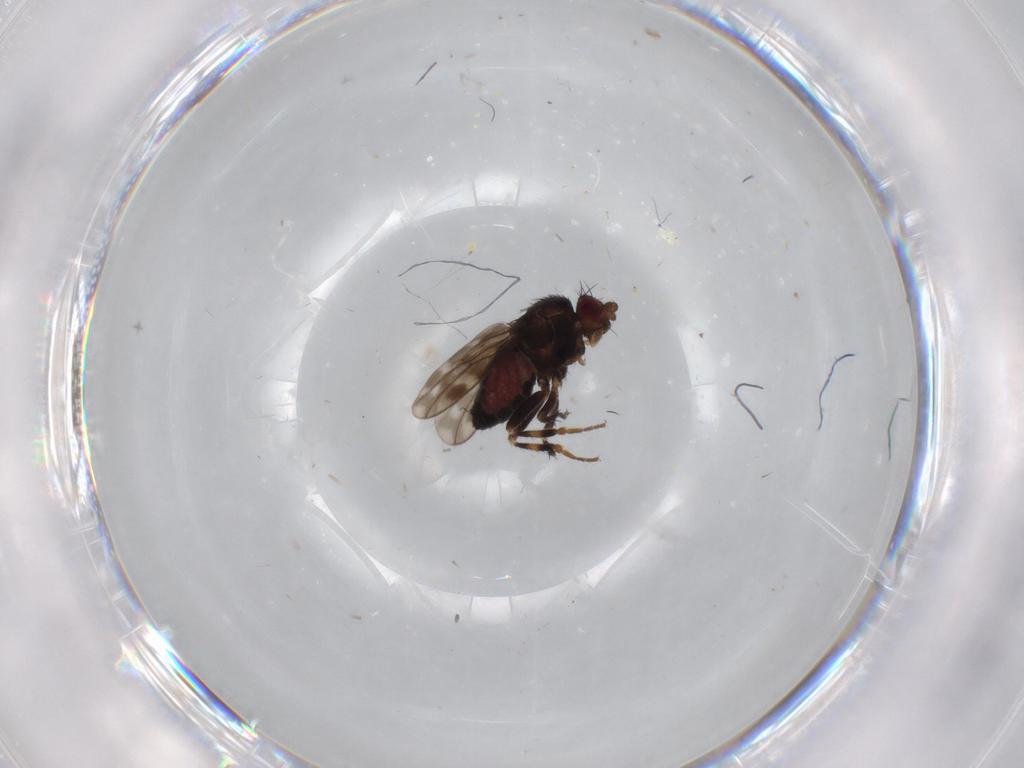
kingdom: Animalia
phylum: Arthropoda
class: Insecta
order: Diptera
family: Sphaeroceridae
